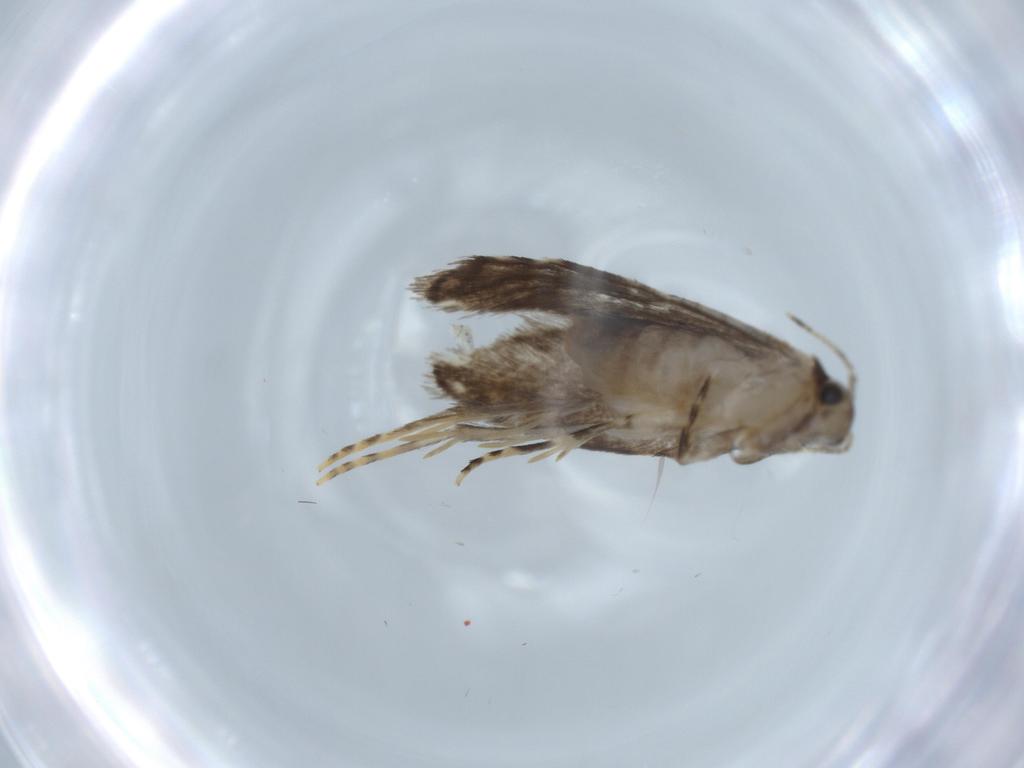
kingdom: Animalia
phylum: Arthropoda
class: Insecta
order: Lepidoptera
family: Tineidae
